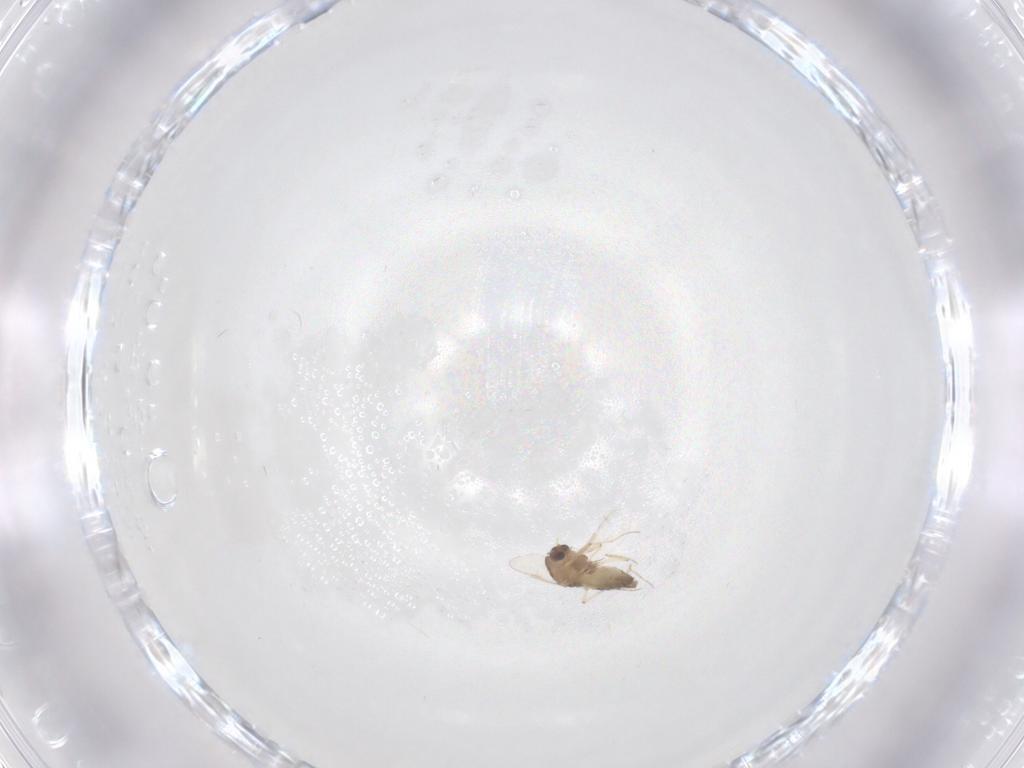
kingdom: Animalia
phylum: Arthropoda
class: Insecta
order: Diptera
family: Chironomidae
